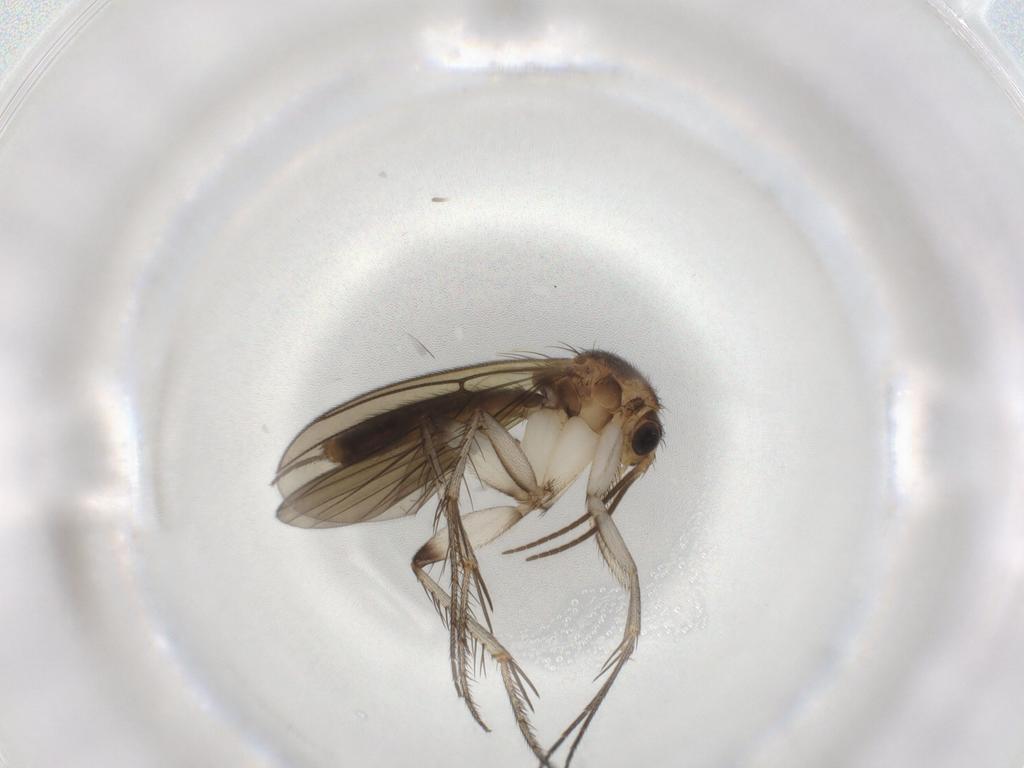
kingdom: Animalia
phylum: Arthropoda
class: Insecta
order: Diptera
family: Mycetophilidae
